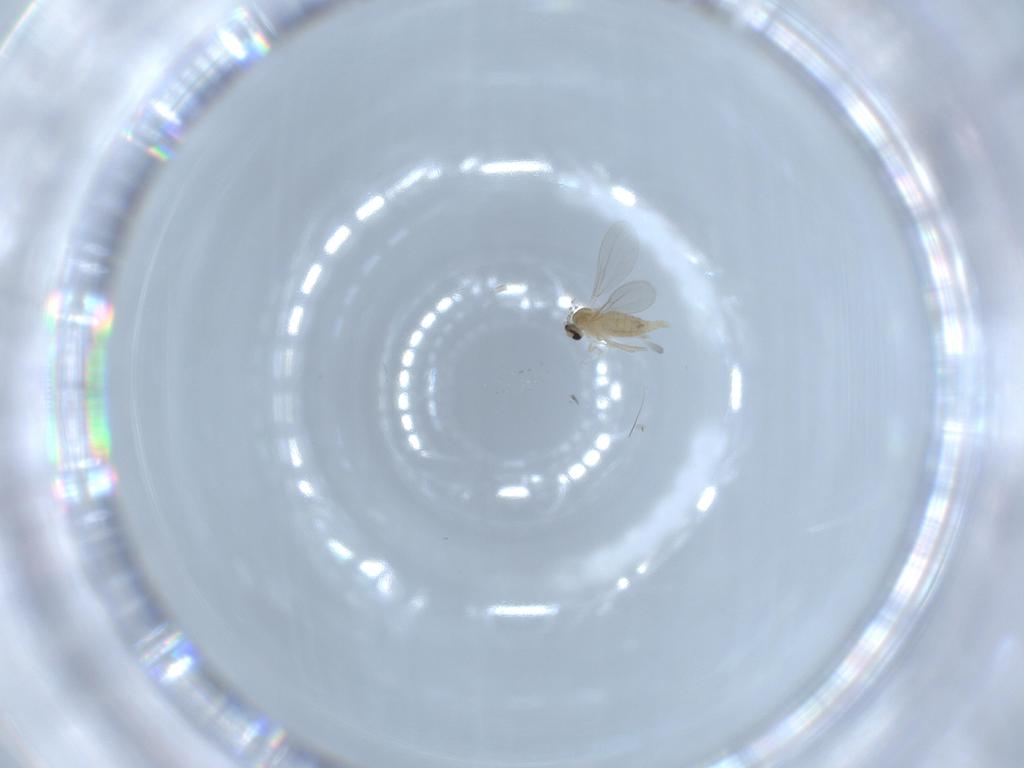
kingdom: Animalia
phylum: Arthropoda
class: Insecta
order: Diptera
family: Cecidomyiidae
